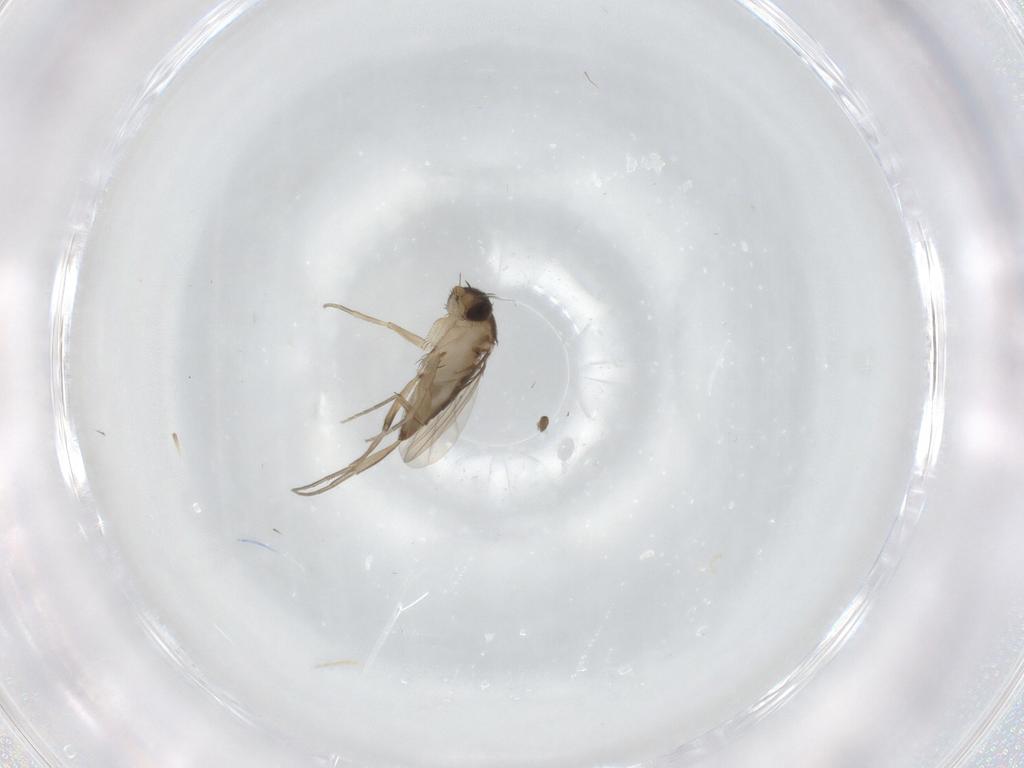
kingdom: Animalia
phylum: Arthropoda
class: Insecta
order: Diptera
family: Phoridae
